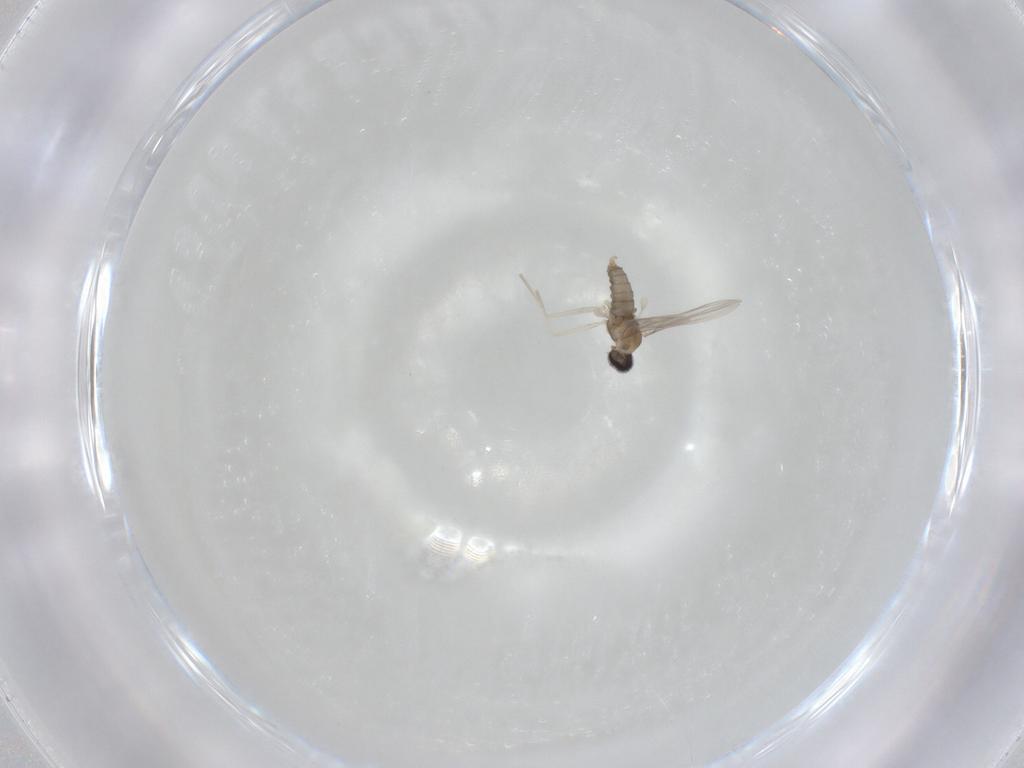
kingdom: Animalia
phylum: Arthropoda
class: Insecta
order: Diptera
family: Cecidomyiidae
